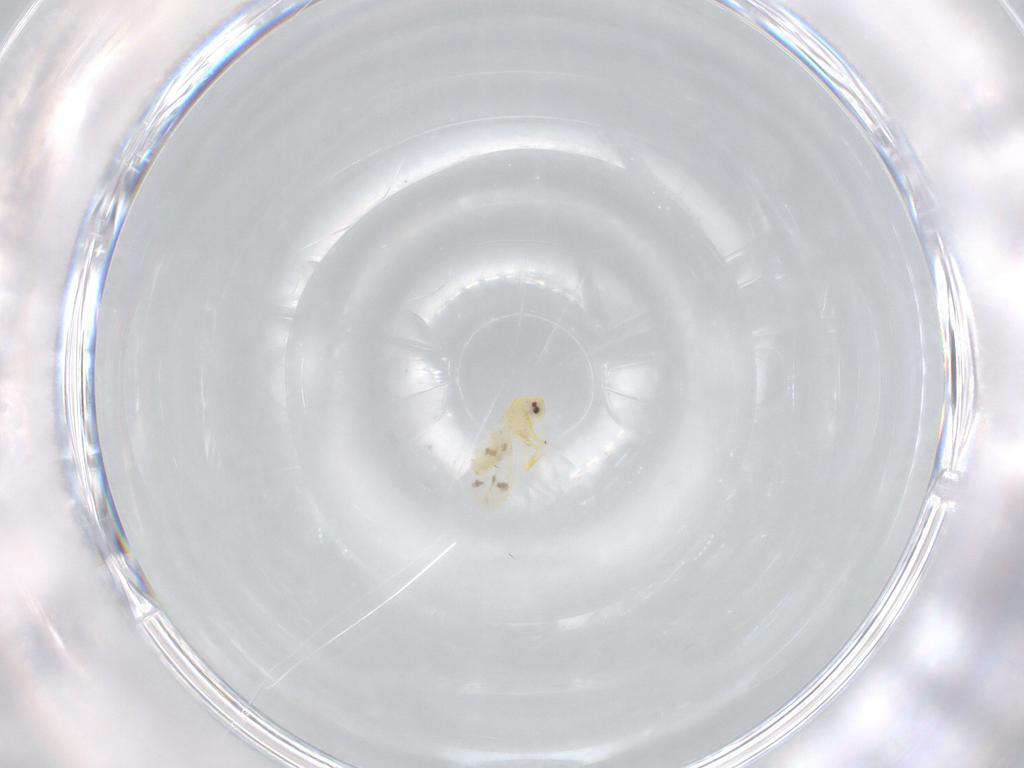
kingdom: Animalia
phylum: Arthropoda
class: Insecta
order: Hemiptera
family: Aleyrodidae
